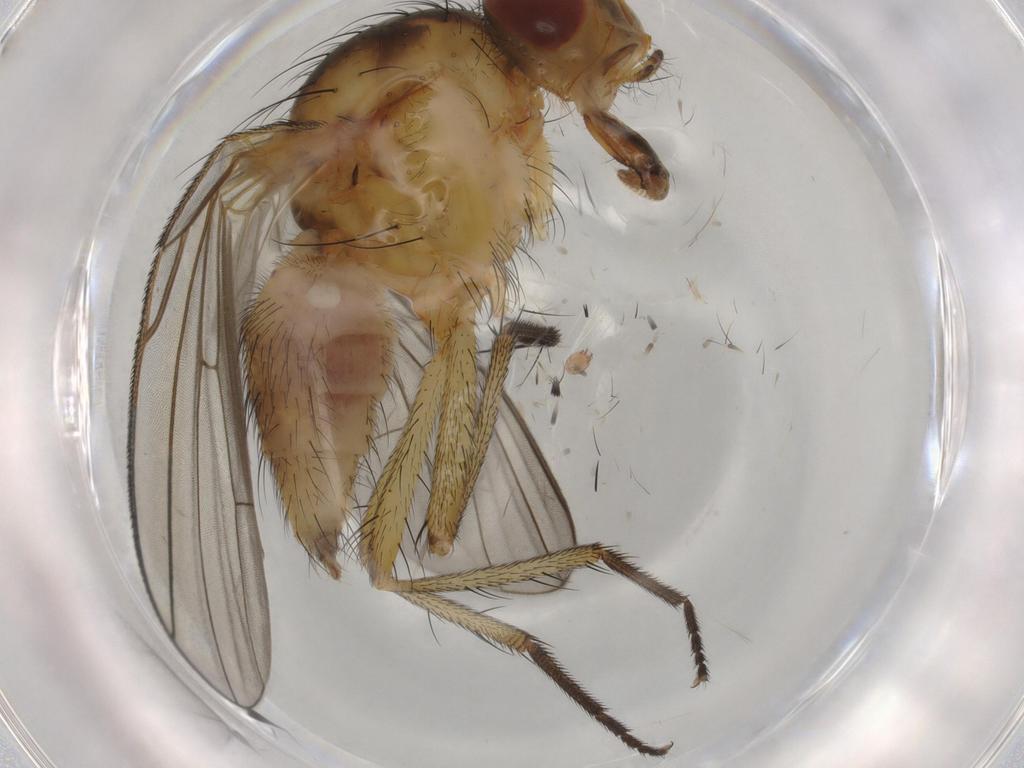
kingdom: Animalia
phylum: Arthropoda
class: Insecta
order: Diptera
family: Anthomyiidae
